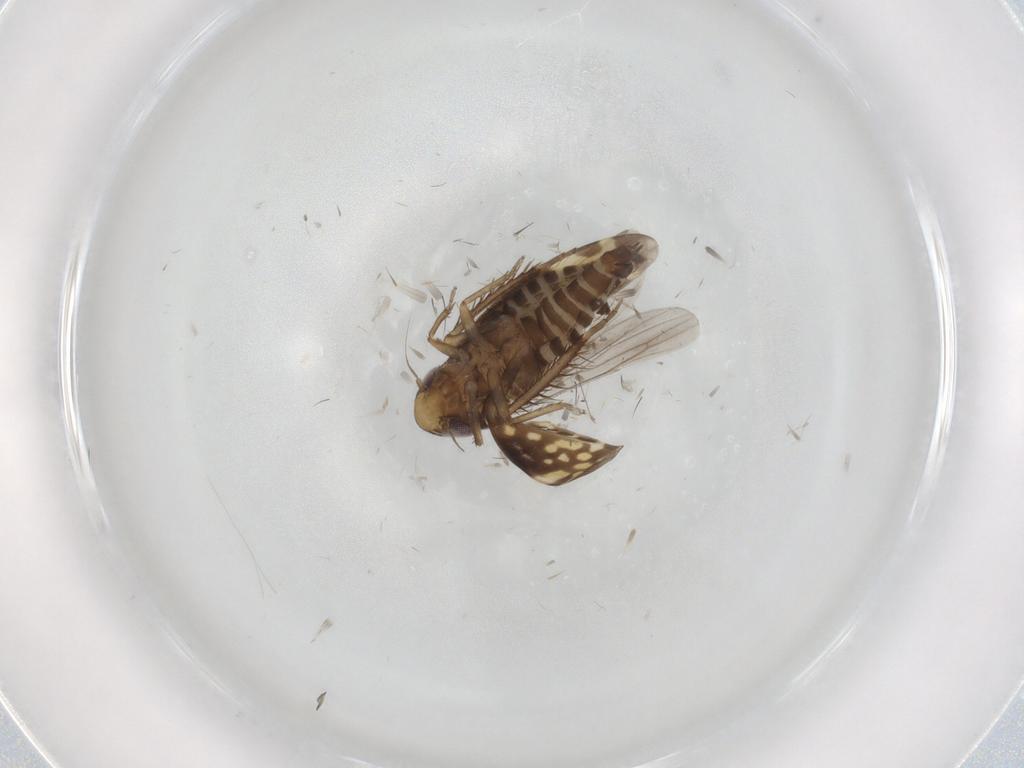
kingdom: Animalia
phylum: Arthropoda
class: Insecta
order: Hemiptera
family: Cicadellidae
